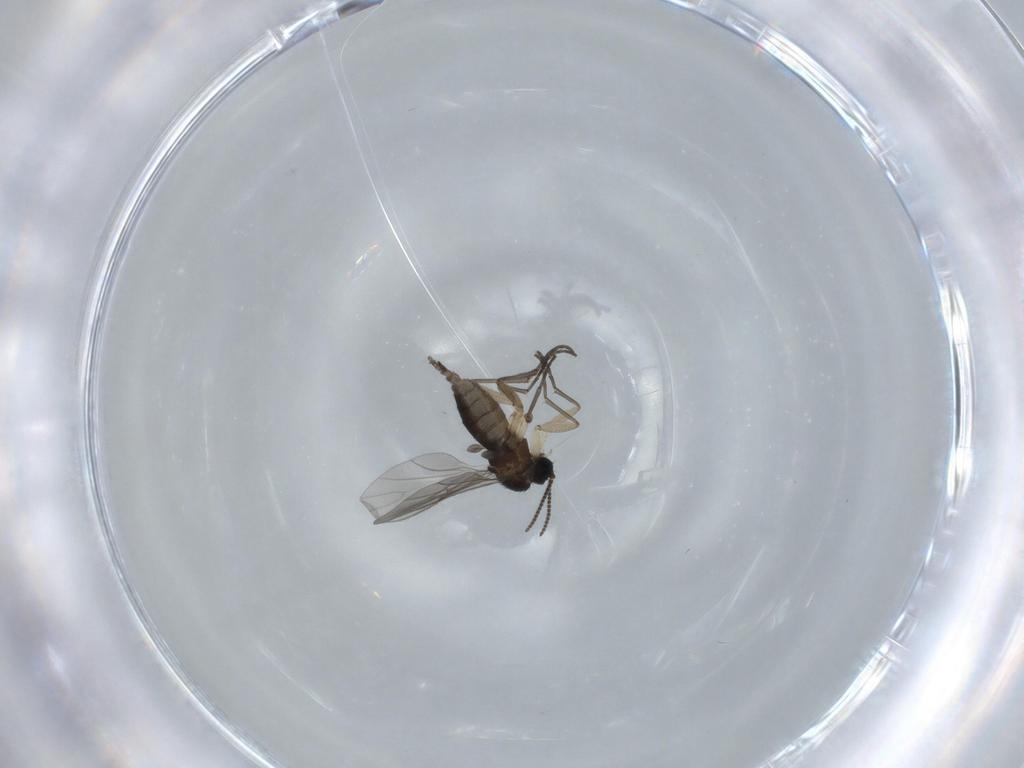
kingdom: Animalia
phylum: Arthropoda
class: Insecta
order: Diptera
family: Sciaridae
